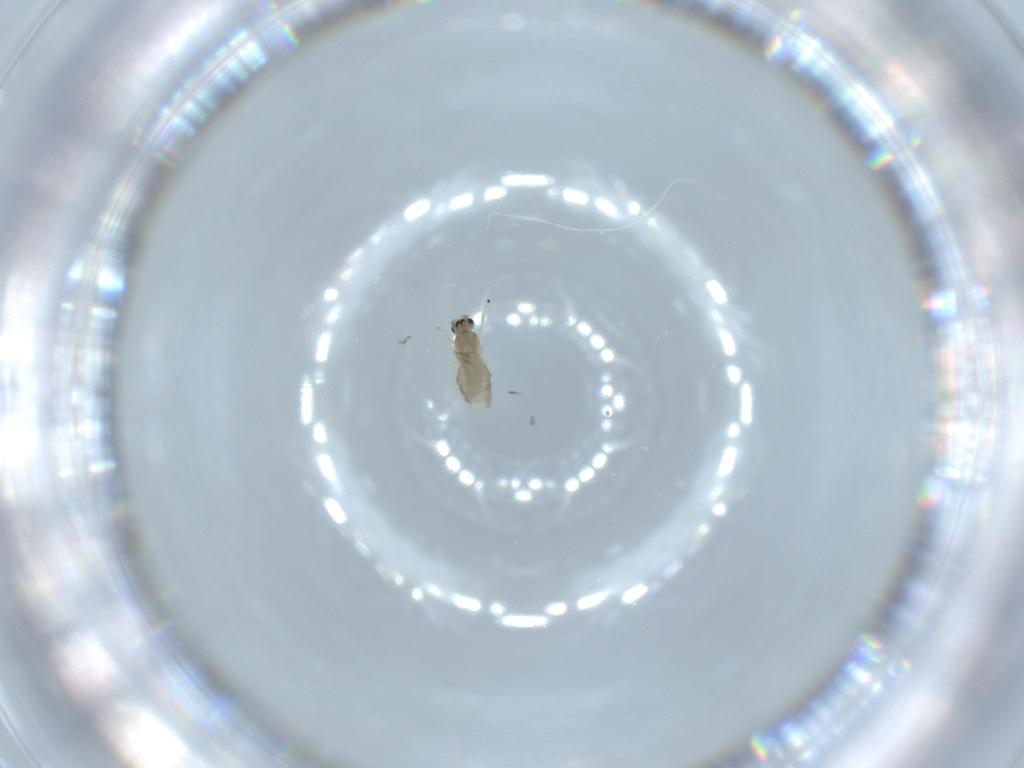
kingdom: Animalia
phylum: Arthropoda
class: Insecta
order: Diptera
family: Cecidomyiidae
